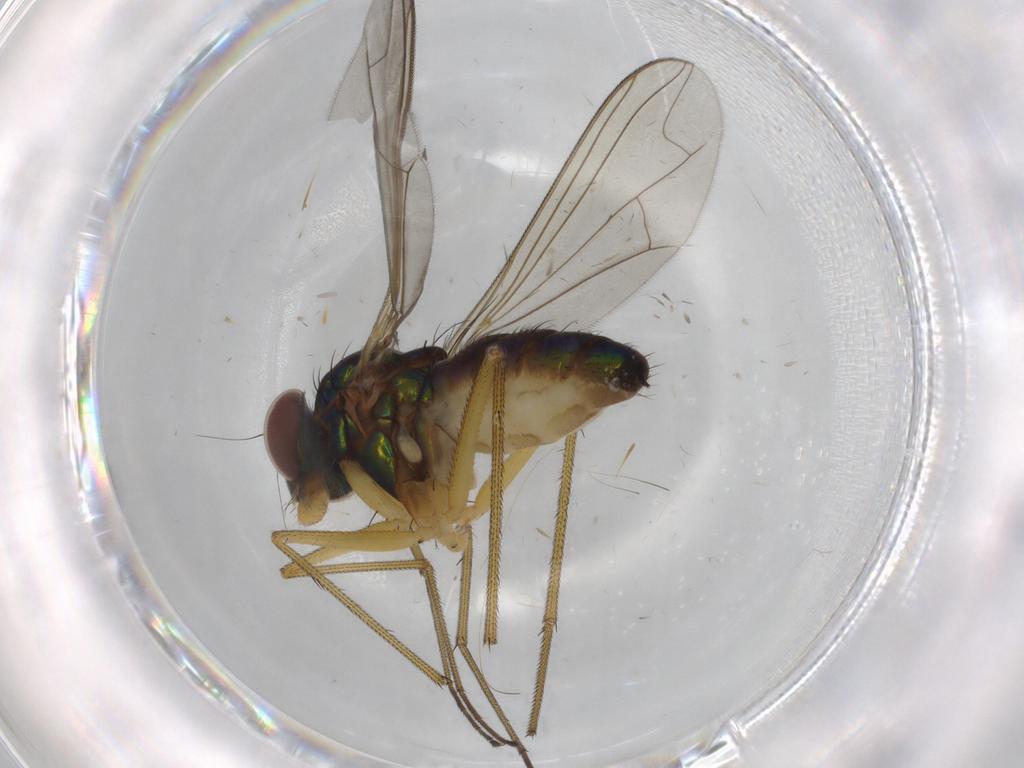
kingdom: Animalia
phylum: Arthropoda
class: Insecta
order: Diptera
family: Dolichopodidae
